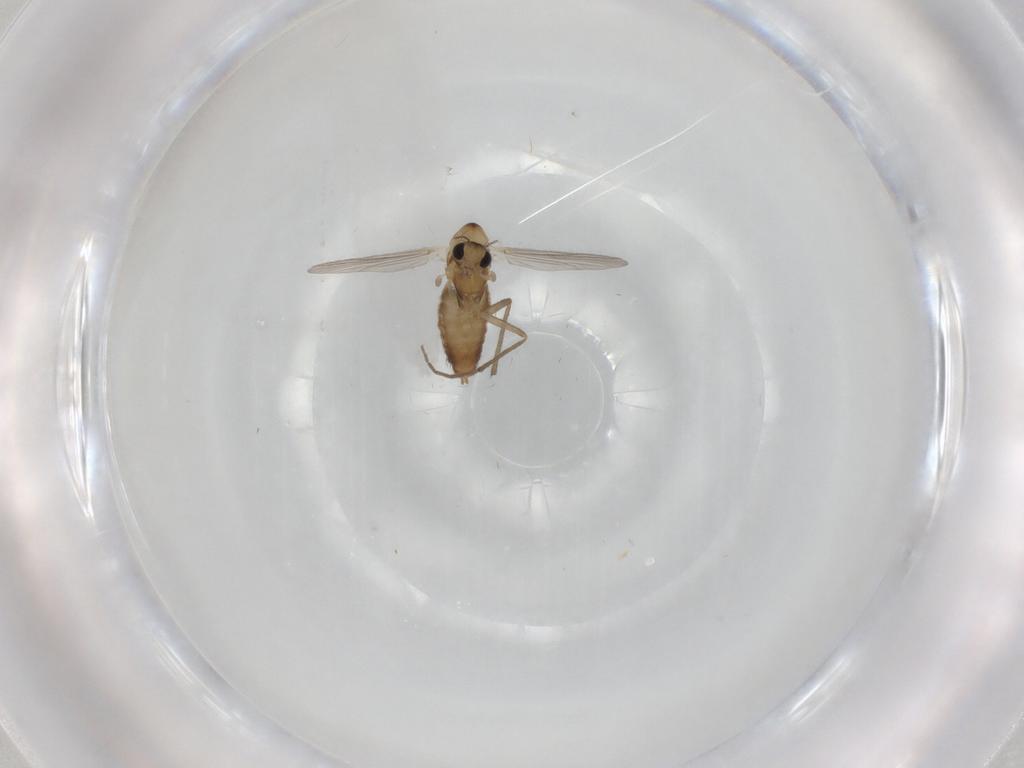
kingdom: Animalia
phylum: Arthropoda
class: Insecta
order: Diptera
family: Chironomidae
